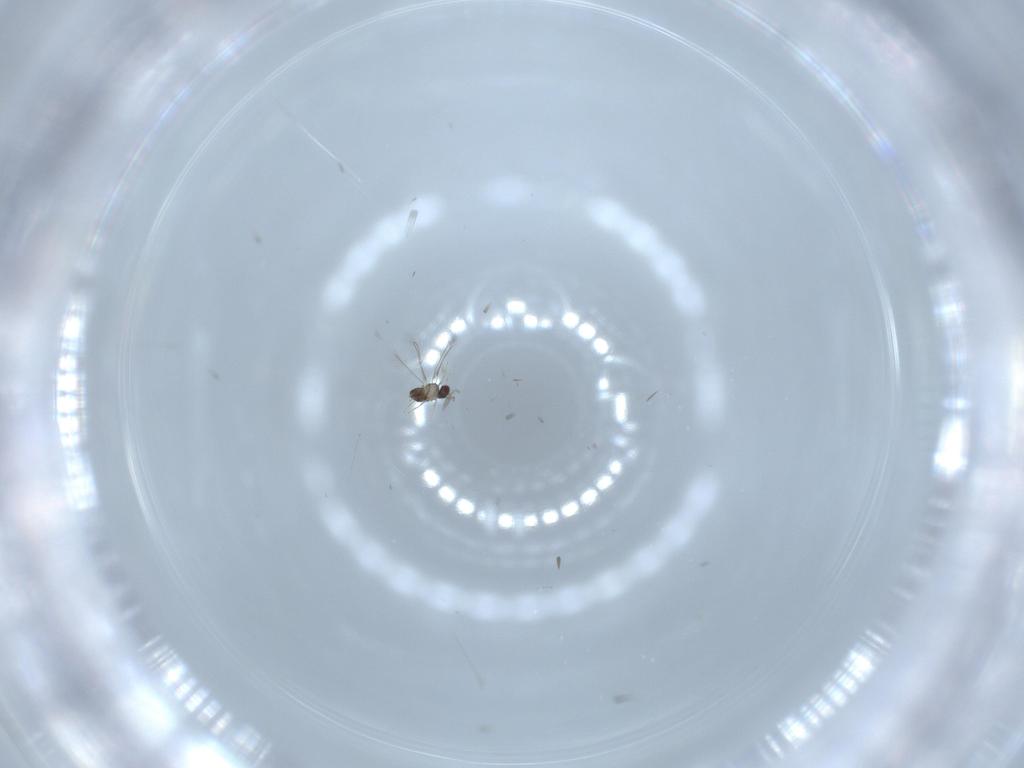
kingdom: Animalia
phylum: Arthropoda
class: Insecta
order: Hymenoptera
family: Mymaridae
